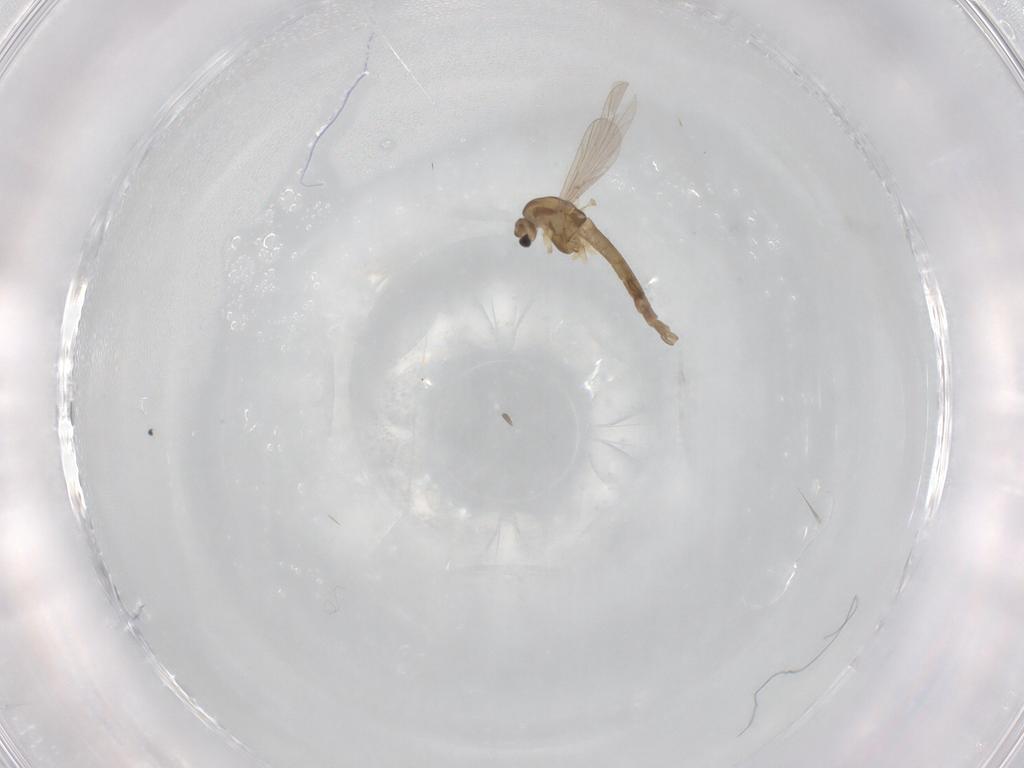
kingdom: Animalia
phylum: Arthropoda
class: Insecta
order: Diptera
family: Chironomidae
